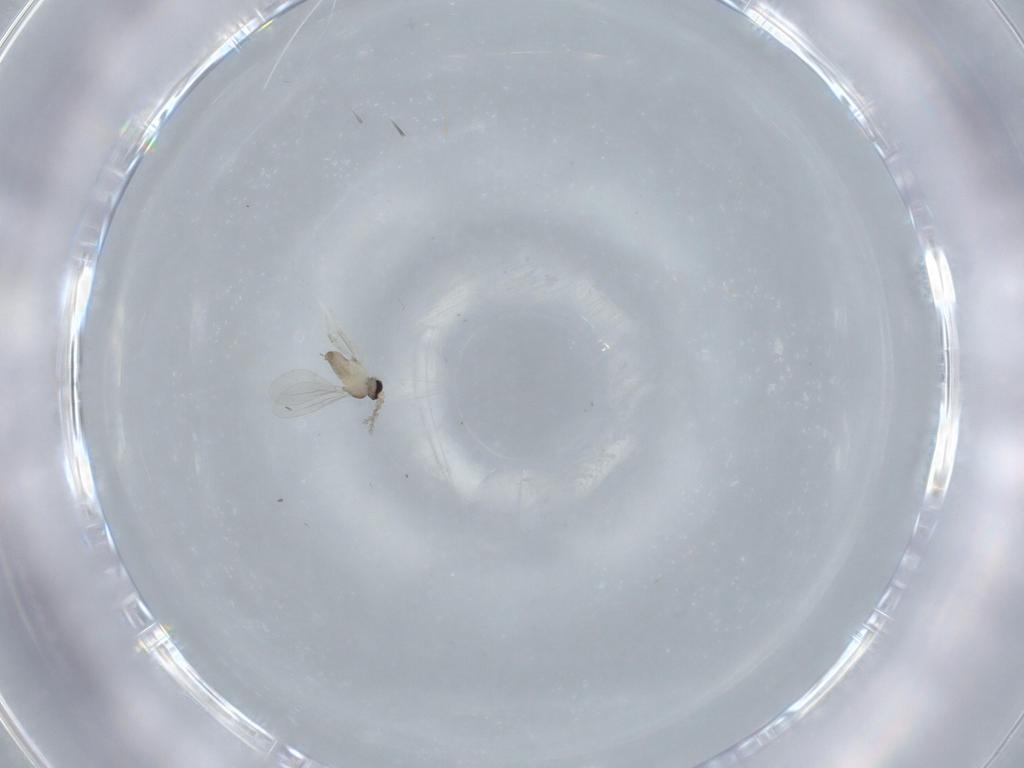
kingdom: Animalia
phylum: Arthropoda
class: Insecta
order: Diptera
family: Cecidomyiidae
